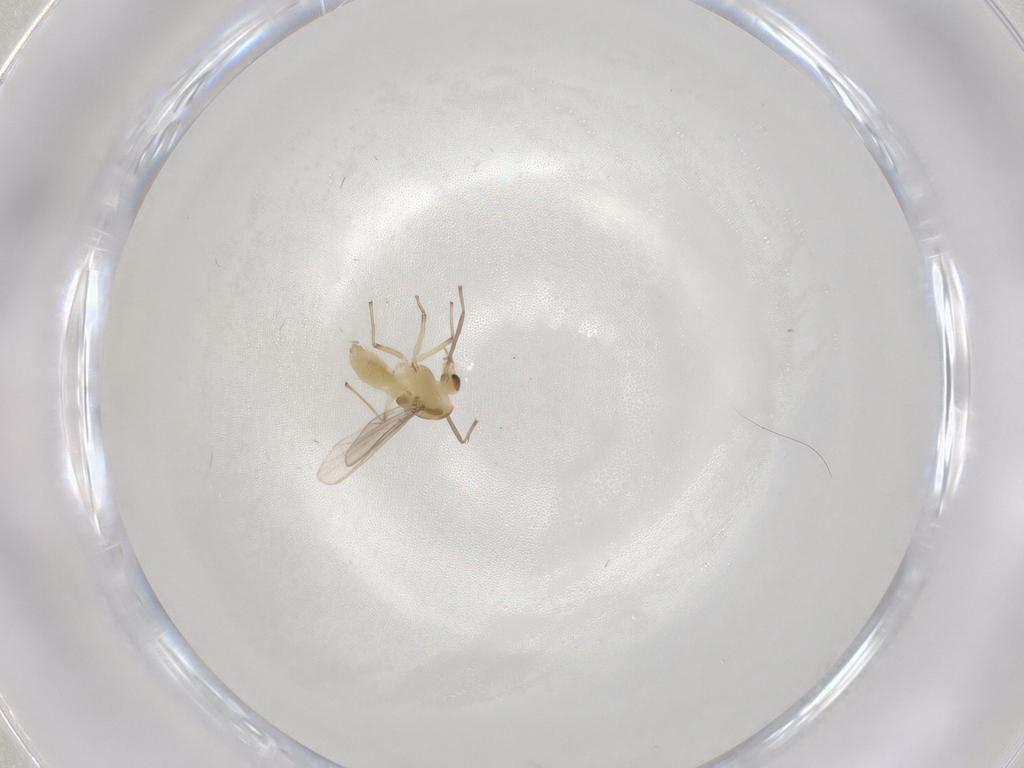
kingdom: Animalia
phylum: Arthropoda
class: Insecta
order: Diptera
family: Chironomidae
